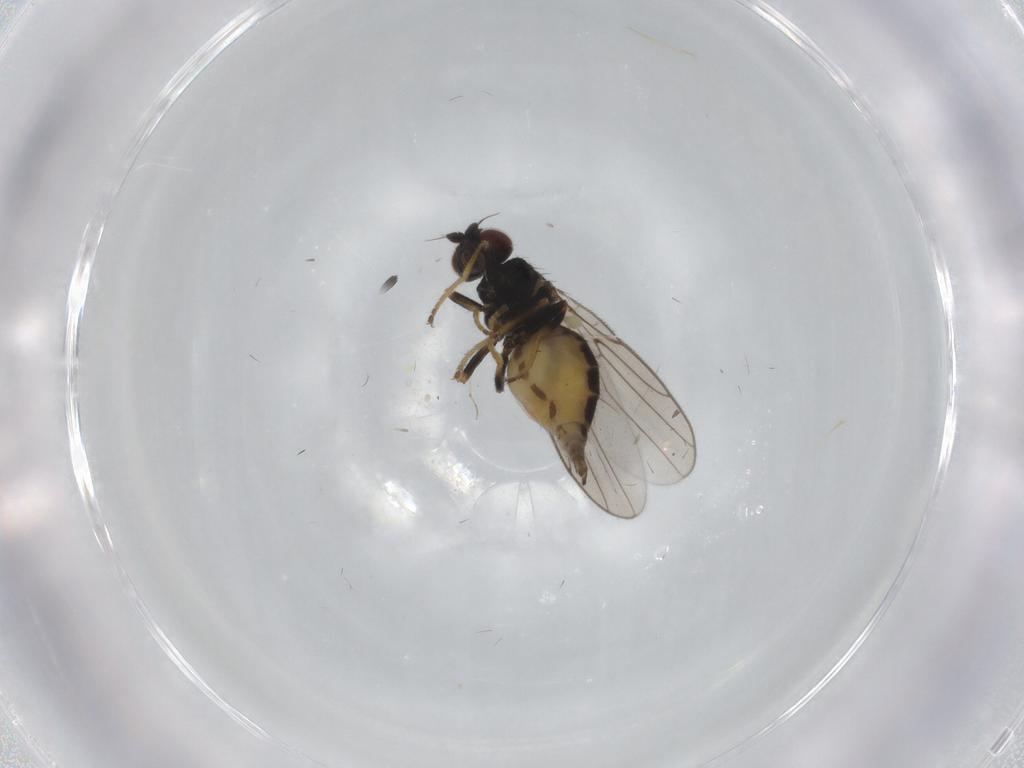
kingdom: Animalia
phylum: Arthropoda
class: Insecta
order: Diptera
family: Chloropidae
